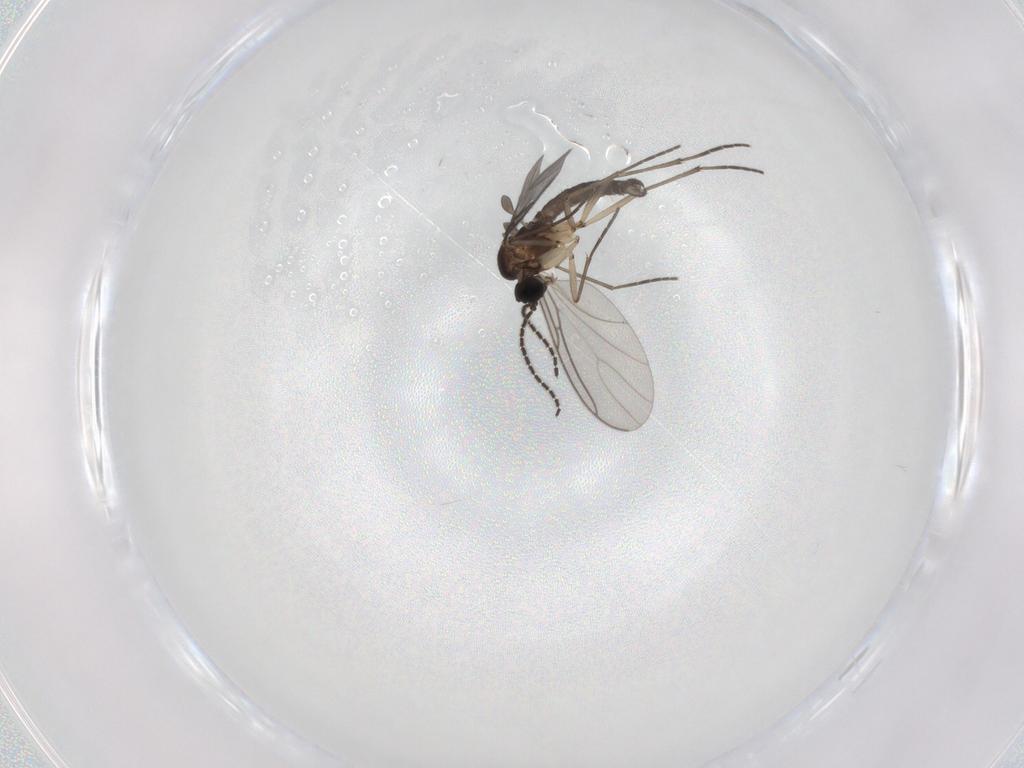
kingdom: Animalia
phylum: Arthropoda
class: Insecta
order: Diptera
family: Sciaridae
